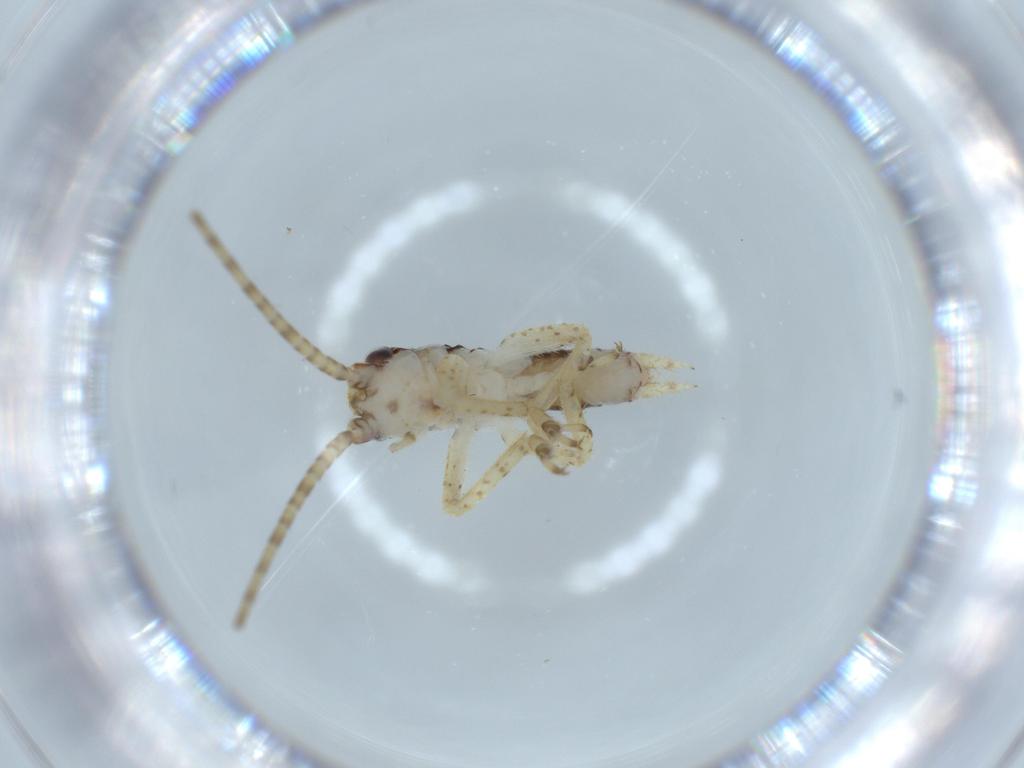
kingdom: Animalia
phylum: Arthropoda
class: Insecta
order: Orthoptera
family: Gryllidae
